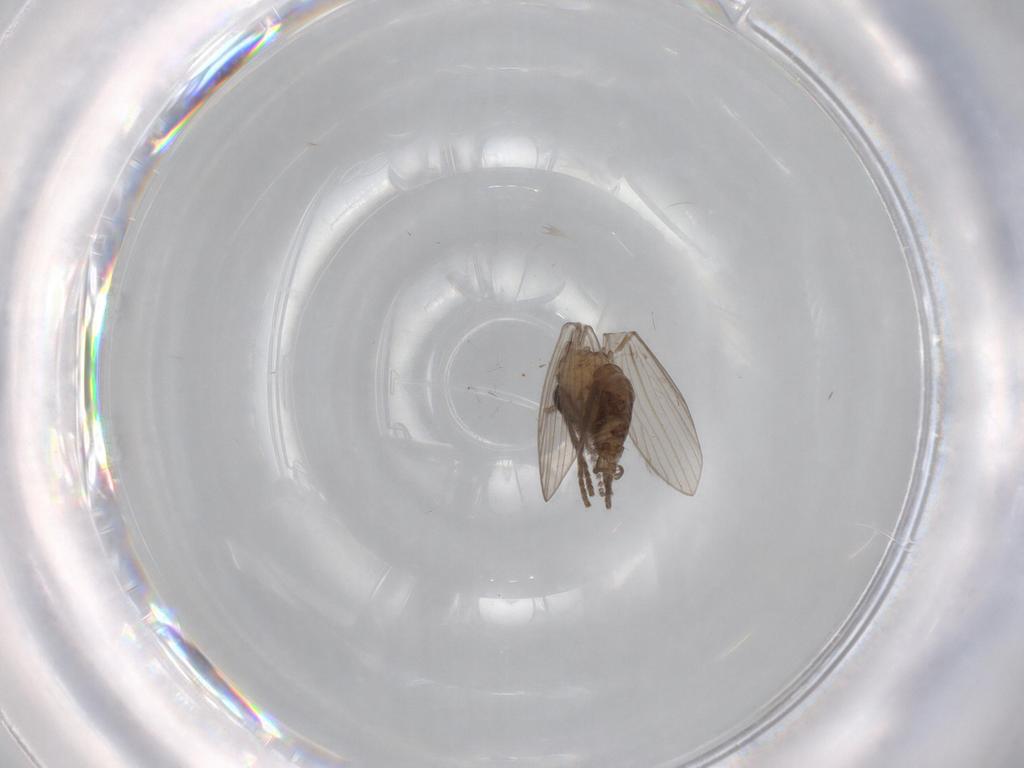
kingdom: Animalia
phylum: Arthropoda
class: Insecta
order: Diptera
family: Psychodidae
